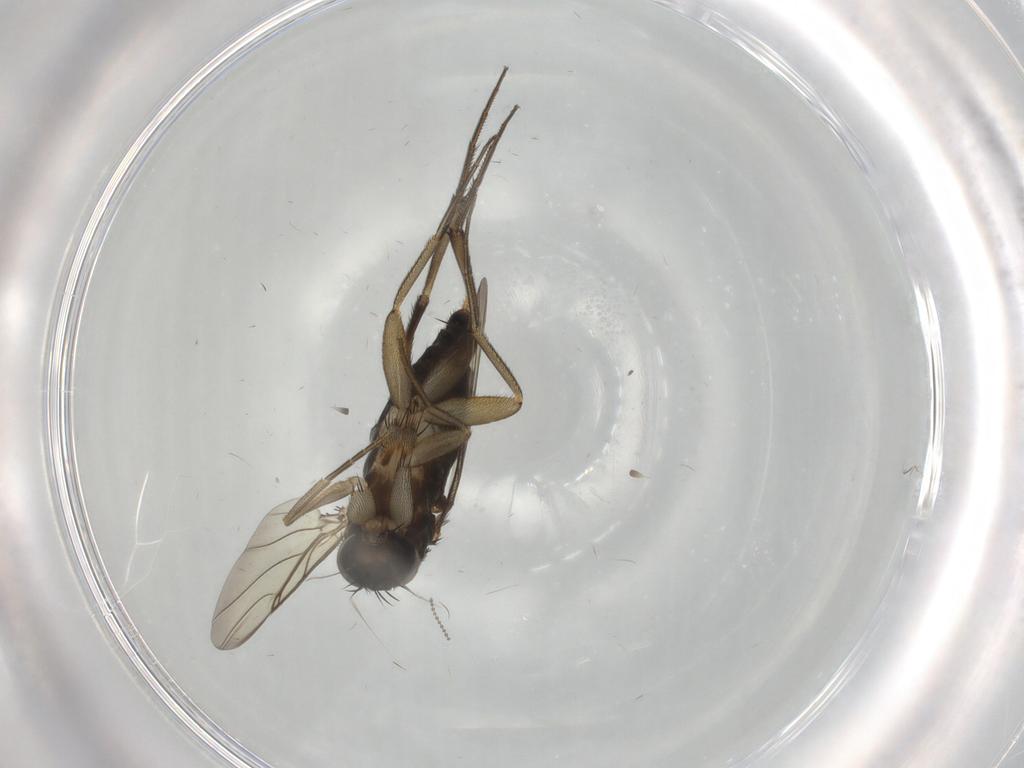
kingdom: Animalia
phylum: Arthropoda
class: Insecta
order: Diptera
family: Phoridae
